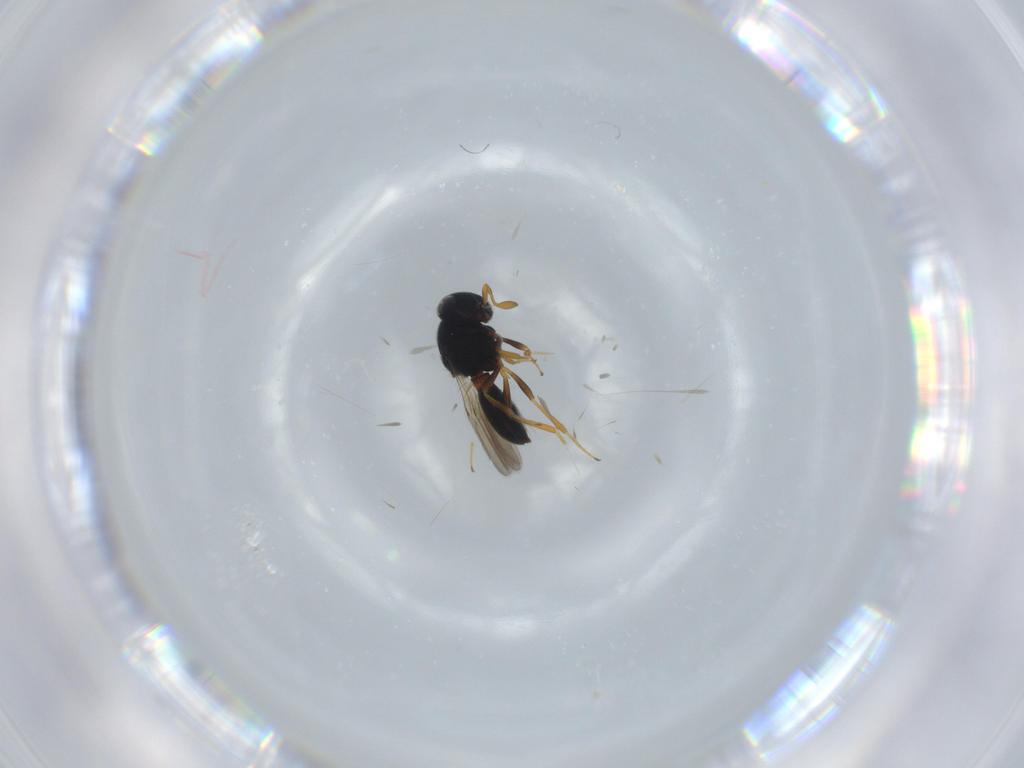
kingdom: Animalia
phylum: Arthropoda
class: Insecta
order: Hymenoptera
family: Scelionidae
